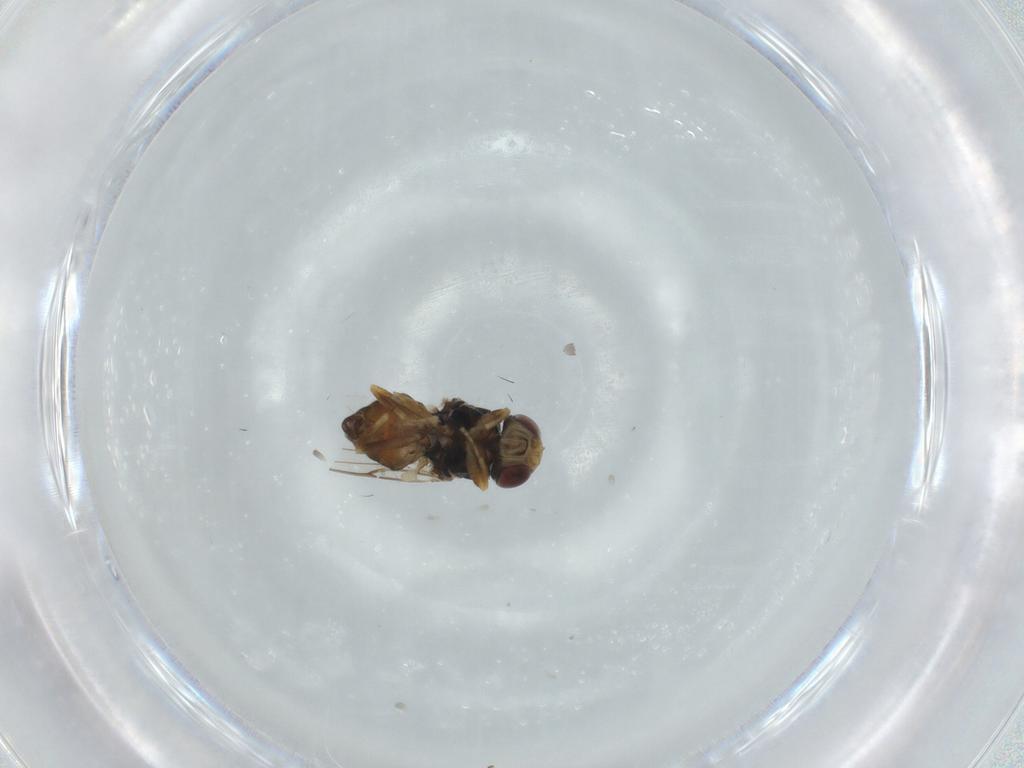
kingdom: Animalia
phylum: Arthropoda
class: Insecta
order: Diptera
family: Chloropidae
